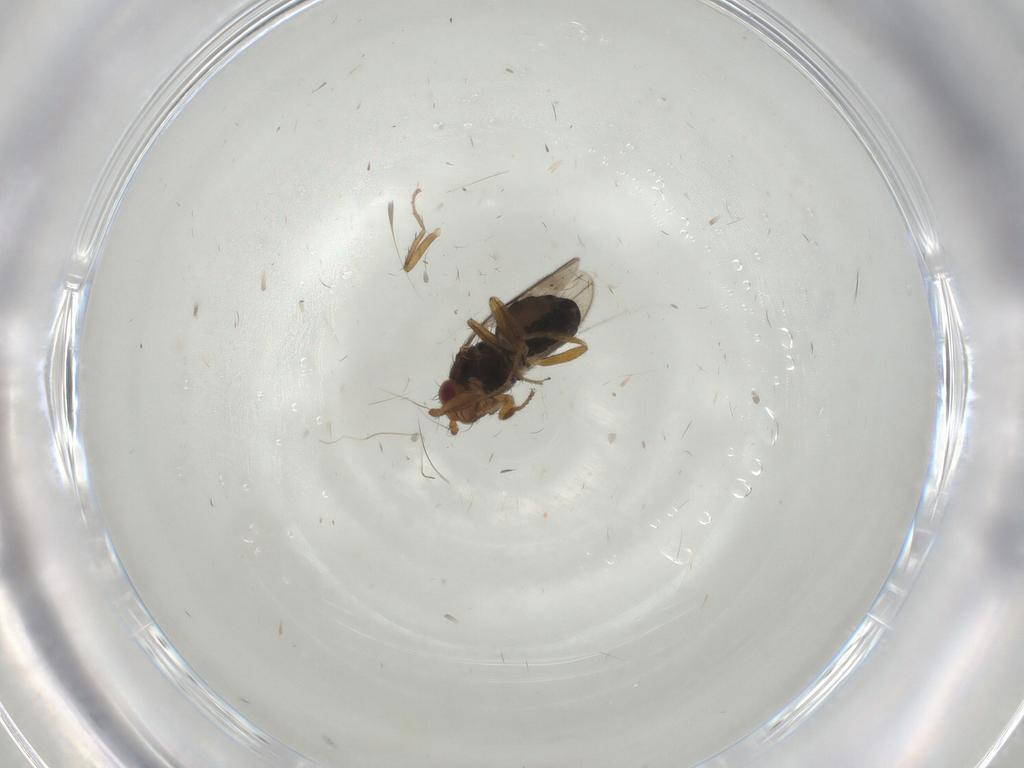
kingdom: Animalia
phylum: Arthropoda
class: Insecta
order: Diptera
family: Sphaeroceridae
